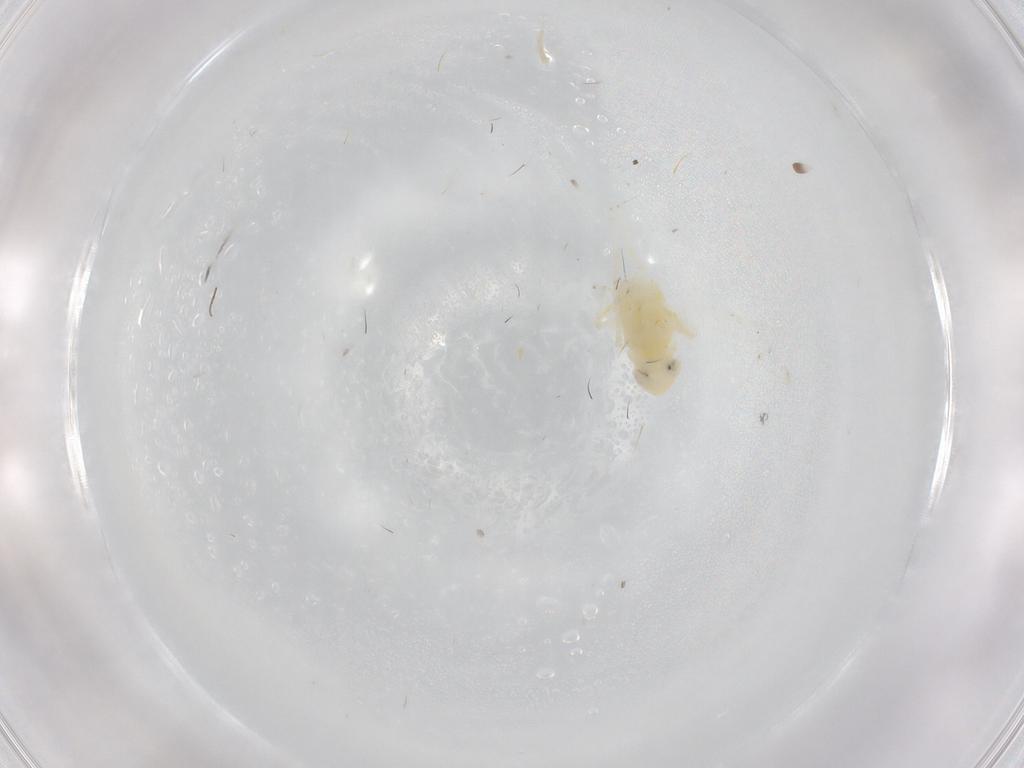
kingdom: Animalia
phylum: Arthropoda
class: Insecta
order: Hemiptera
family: Cicadellidae
